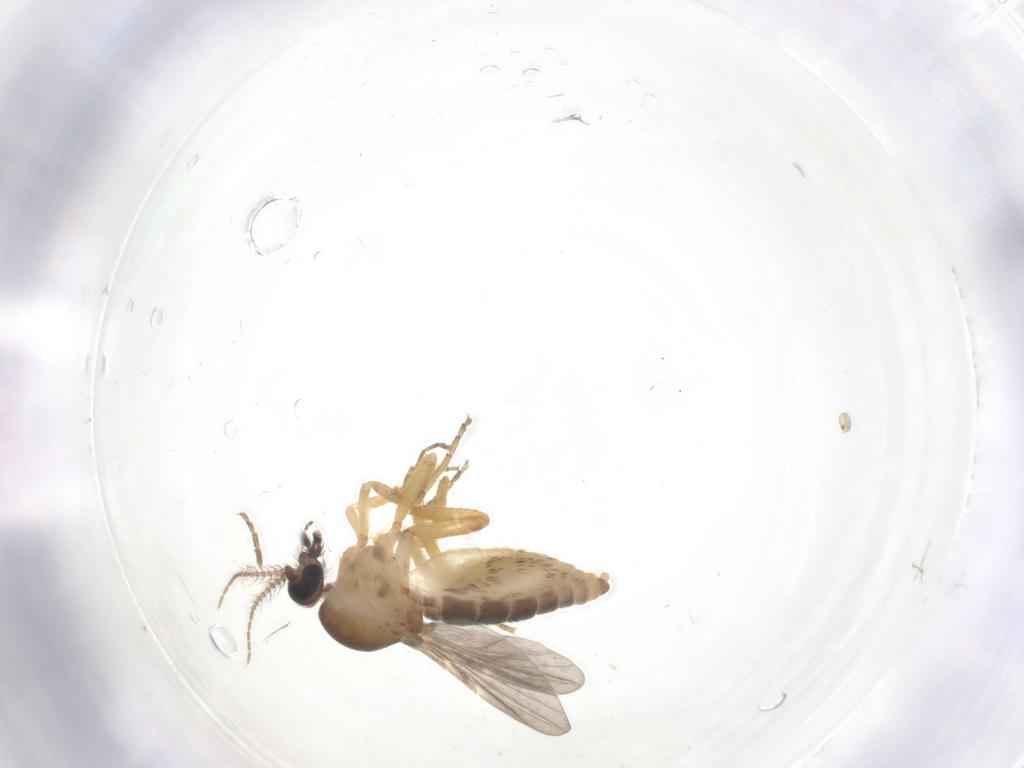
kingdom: Animalia
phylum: Arthropoda
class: Insecta
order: Diptera
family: Ceratopogonidae
